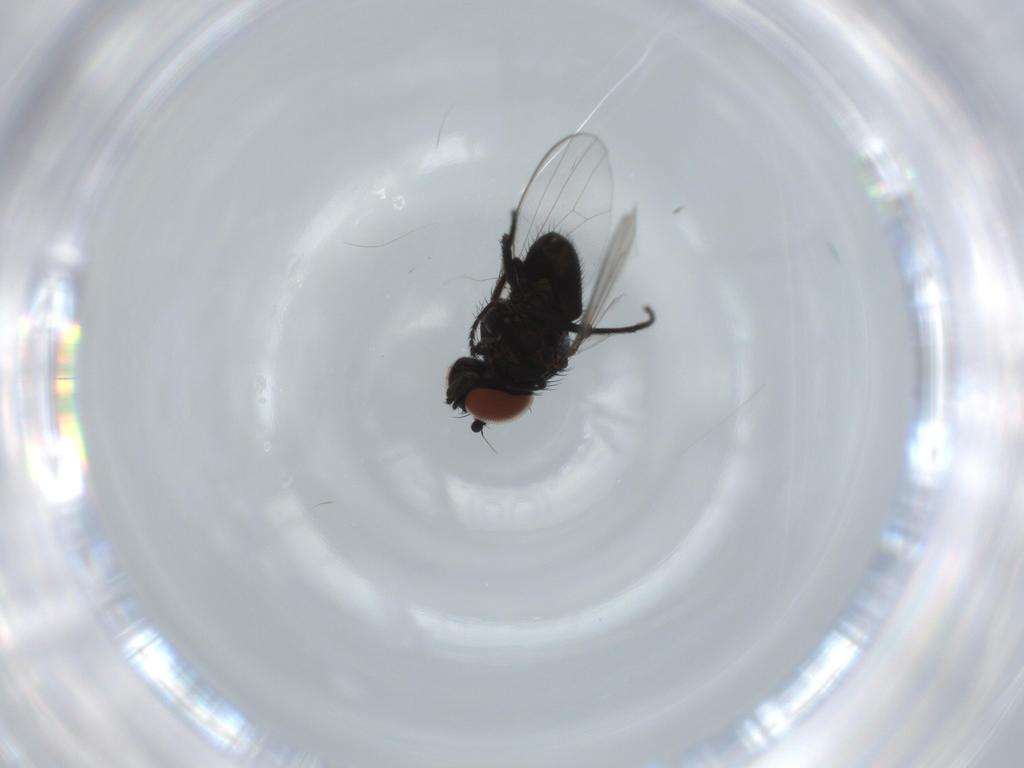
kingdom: Animalia
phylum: Arthropoda
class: Insecta
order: Diptera
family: Milichiidae
